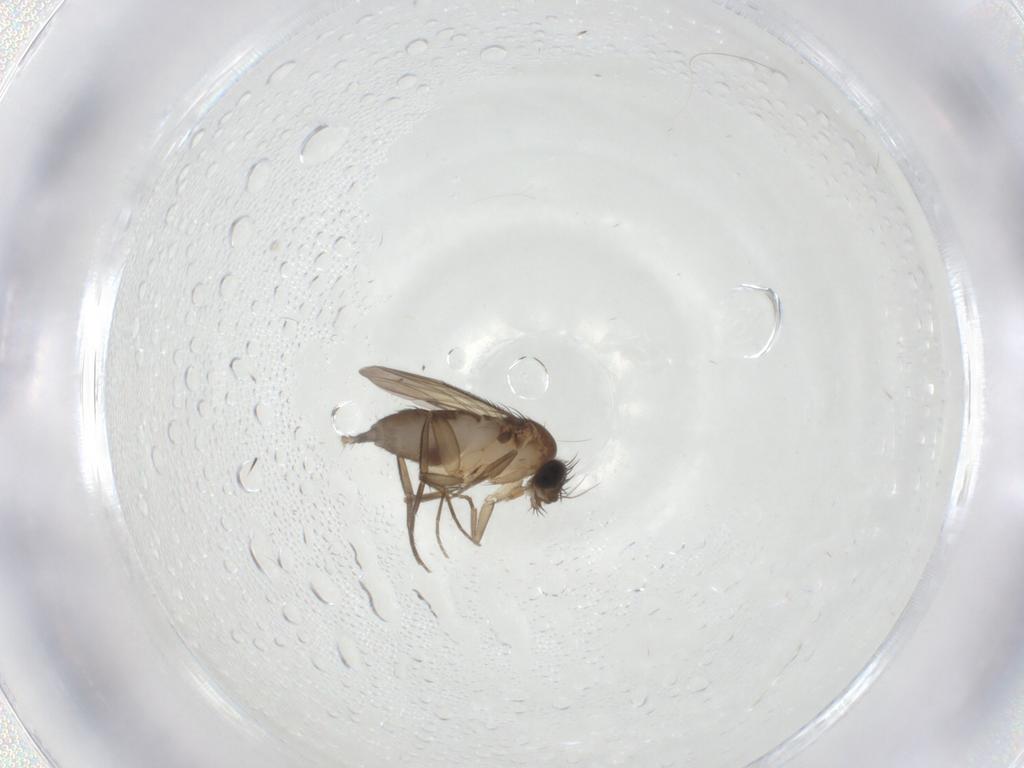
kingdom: Animalia
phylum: Arthropoda
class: Insecta
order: Diptera
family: Phoridae
